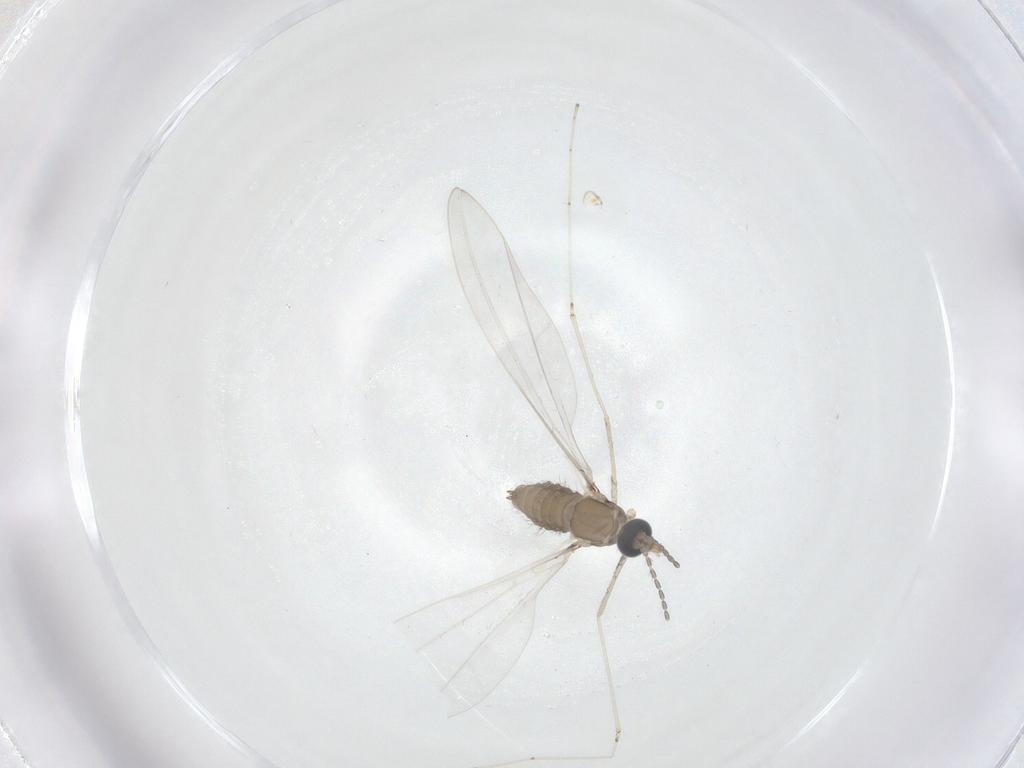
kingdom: Animalia
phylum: Arthropoda
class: Insecta
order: Diptera
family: Cecidomyiidae
